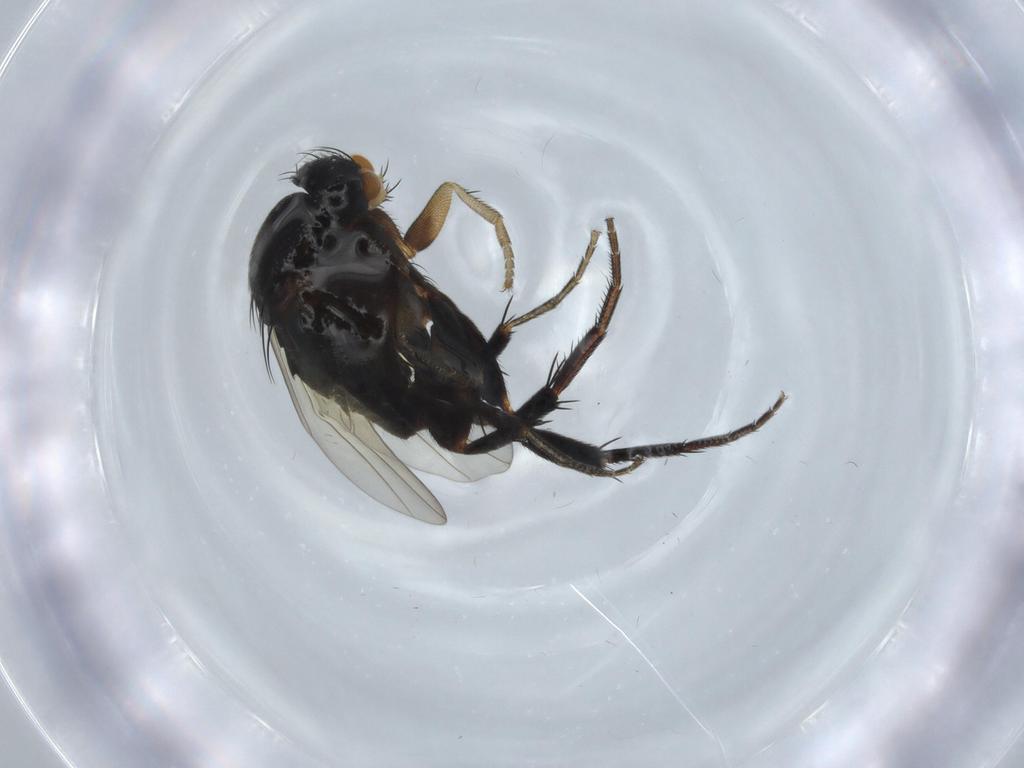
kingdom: Animalia
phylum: Arthropoda
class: Insecta
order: Diptera
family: Phoridae
